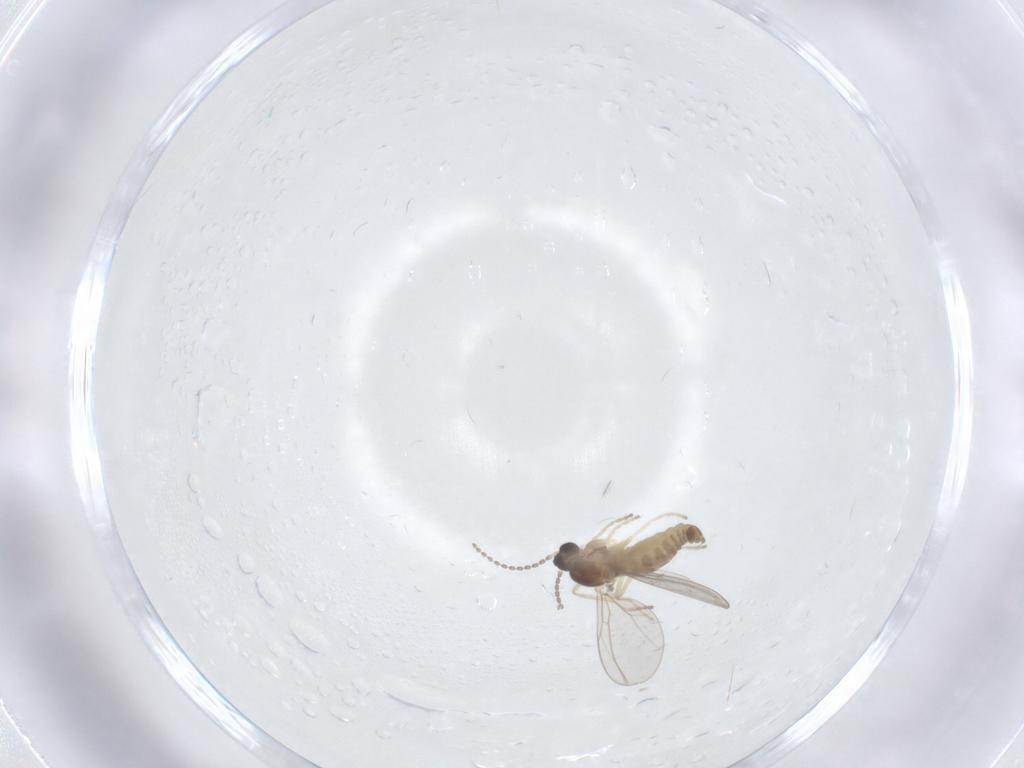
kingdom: Animalia
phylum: Arthropoda
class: Insecta
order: Diptera
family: Cecidomyiidae
